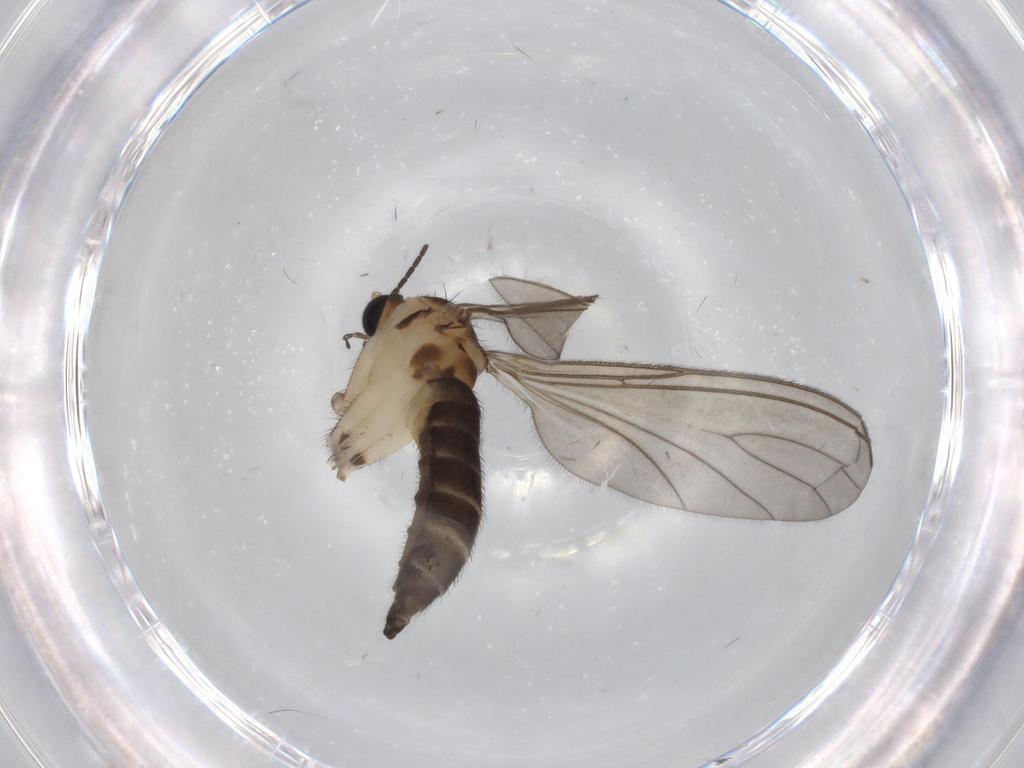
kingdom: Animalia
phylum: Arthropoda
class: Insecta
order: Diptera
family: Sciaridae
